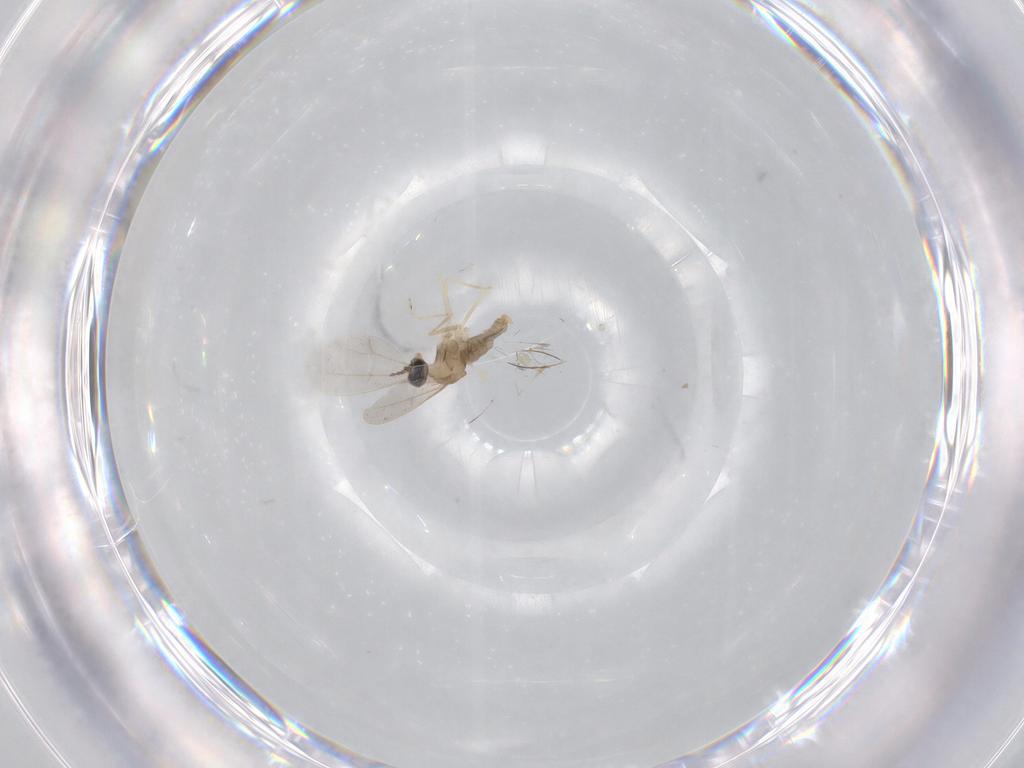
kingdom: Animalia
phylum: Arthropoda
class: Insecta
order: Diptera
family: Cecidomyiidae
